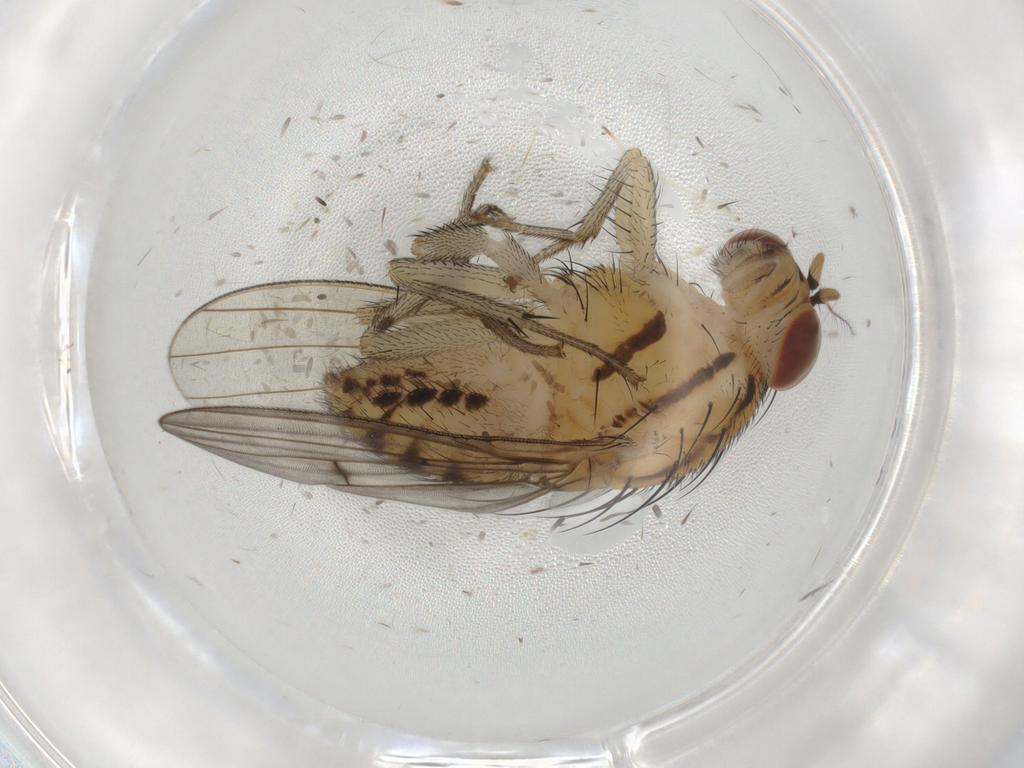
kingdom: Animalia
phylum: Arthropoda
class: Insecta
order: Diptera
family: Lauxaniidae
